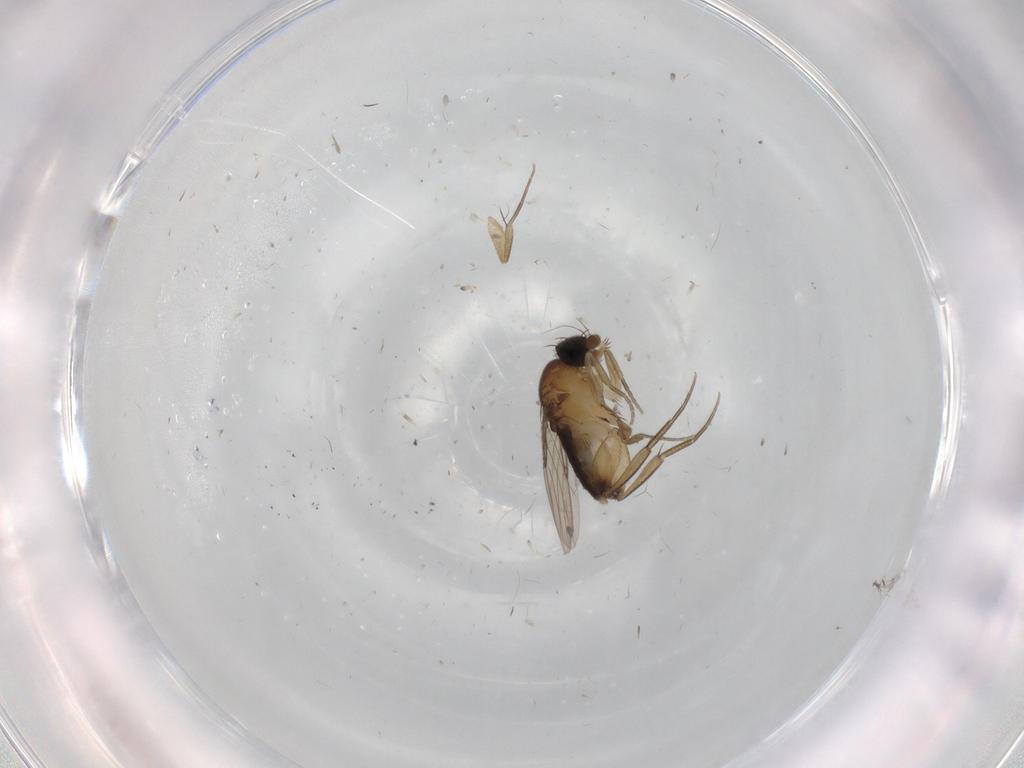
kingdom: Animalia
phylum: Arthropoda
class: Insecta
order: Diptera
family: Phoridae
